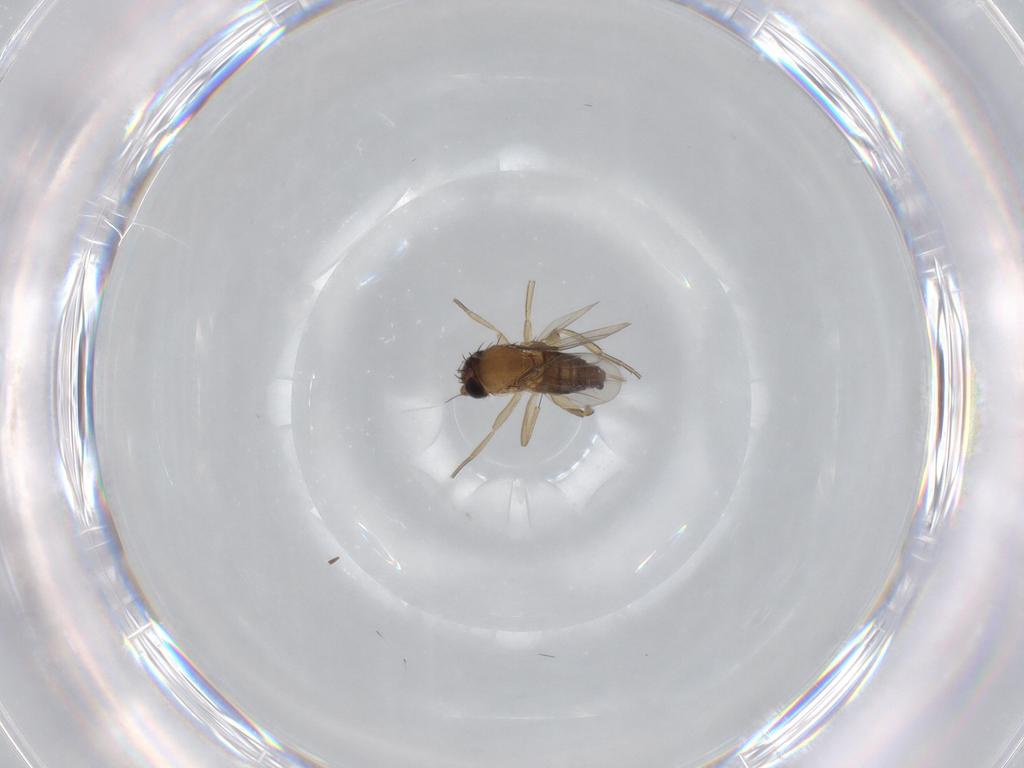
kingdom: Animalia
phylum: Arthropoda
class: Insecta
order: Diptera
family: Phoridae
